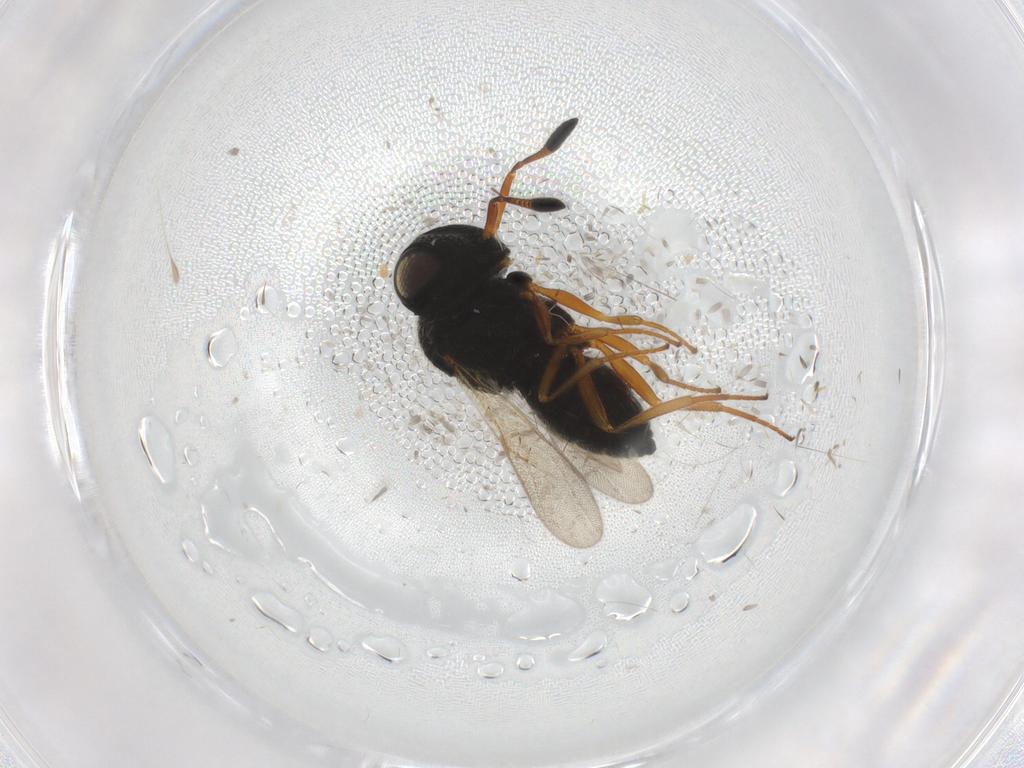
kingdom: Animalia
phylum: Arthropoda
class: Insecta
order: Hymenoptera
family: Scelionidae
